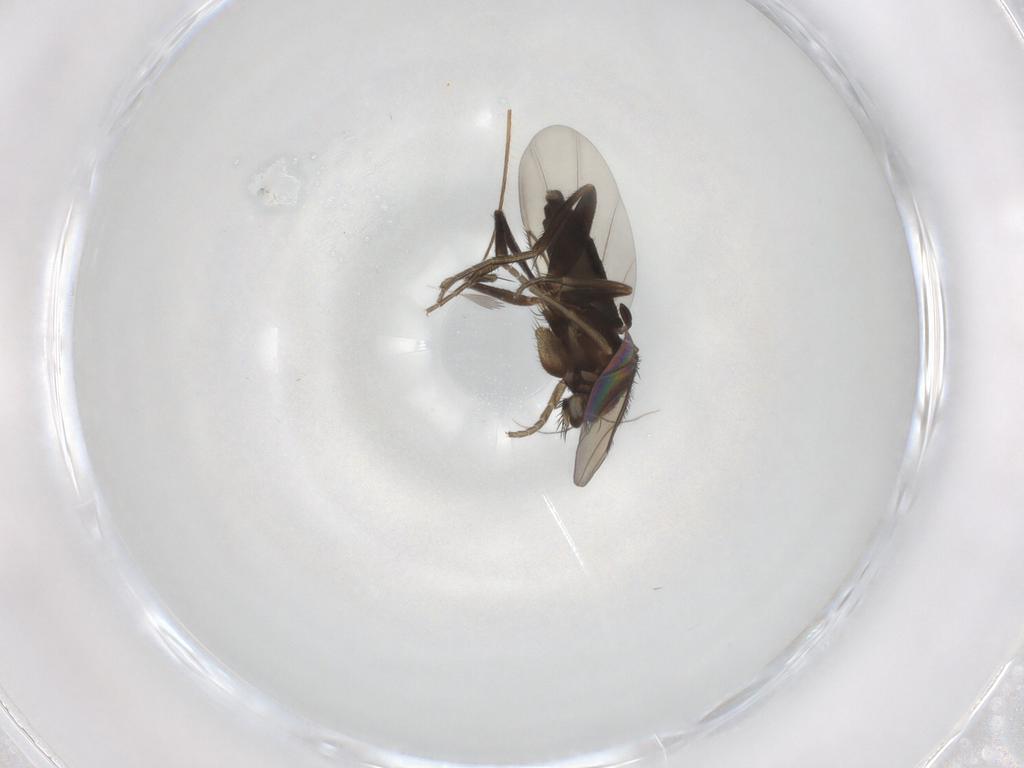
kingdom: Animalia
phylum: Arthropoda
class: Insecta
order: Diptera
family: Phoridae
